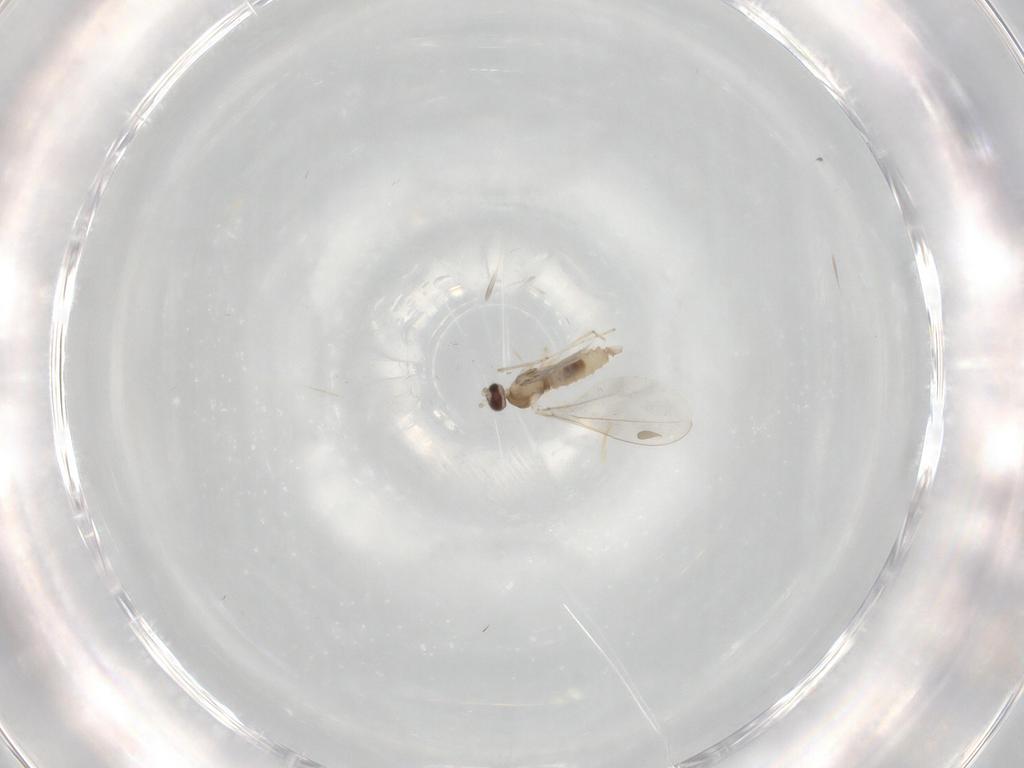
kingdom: Animalia
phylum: Arthropoda
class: Insecta
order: Diptera
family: Cecidomyiidae
